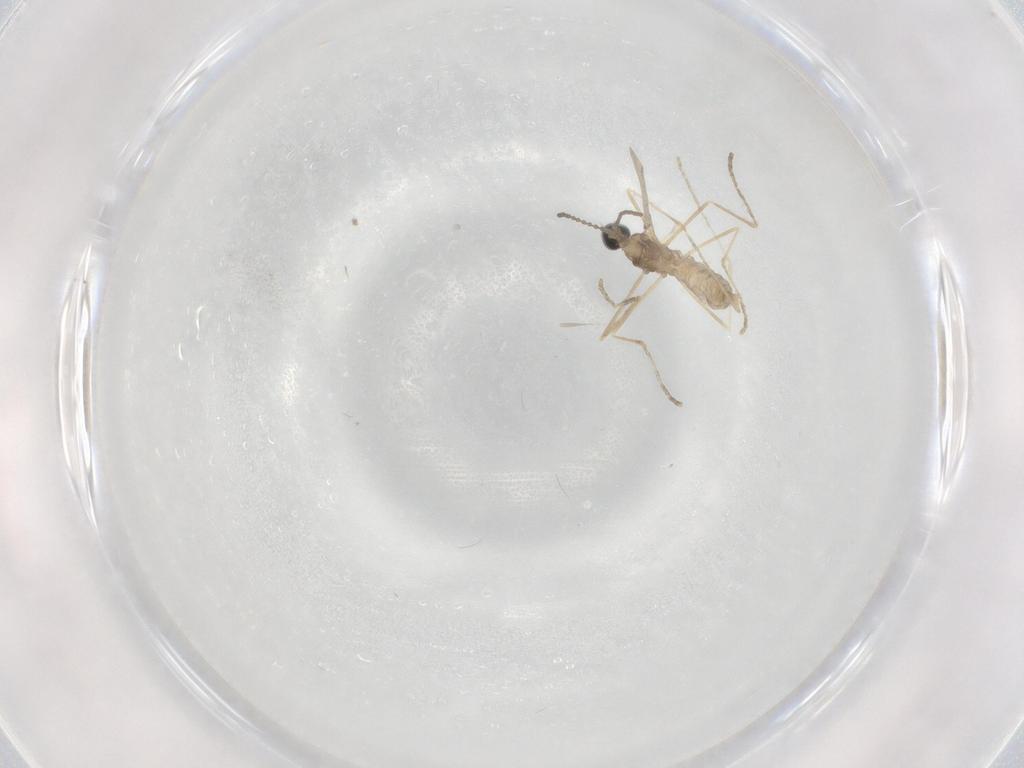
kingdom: Animalia
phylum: Arthropoda
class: Insecta
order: Diptera
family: Cecidomyiidae
